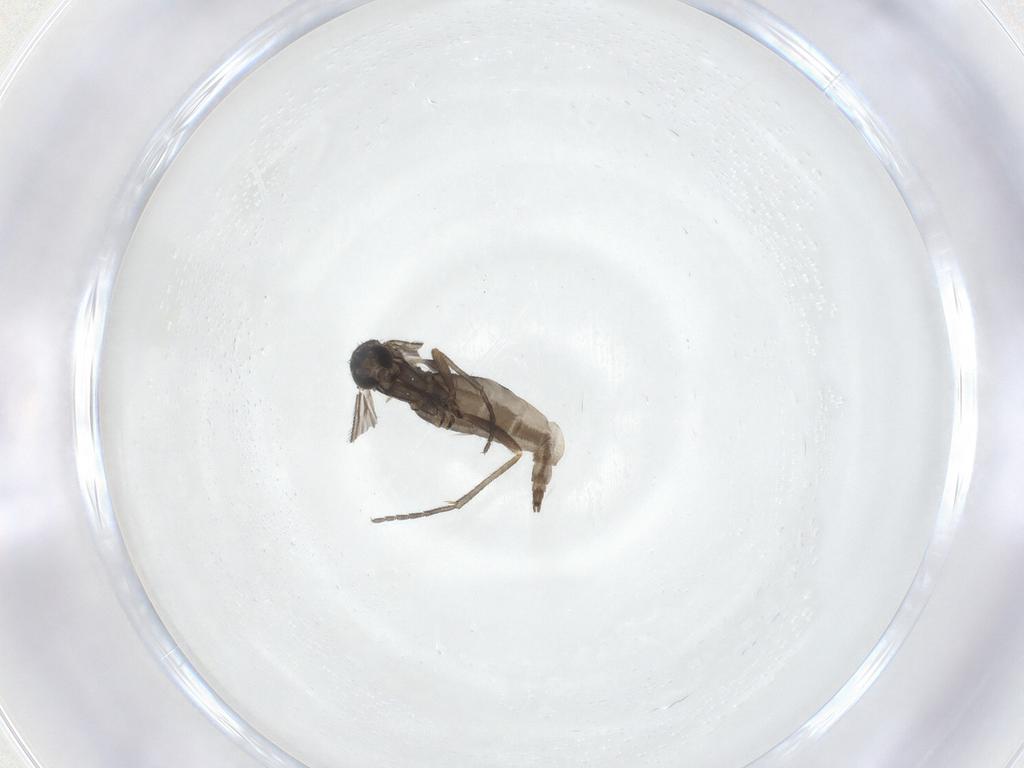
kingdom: Animalia
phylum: Arthropoda
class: Insecta
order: Diptera
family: Sciaridae
